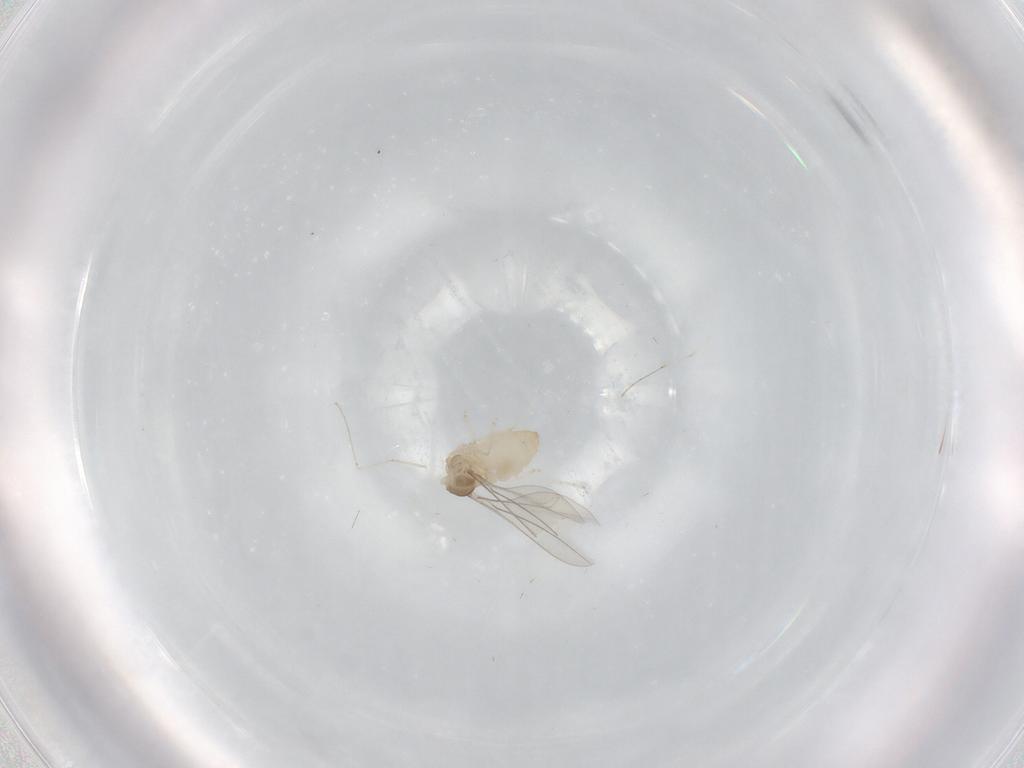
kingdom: Animalia
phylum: Arthropoda
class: Insecta
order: Diptera
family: Cecidomyiidae
